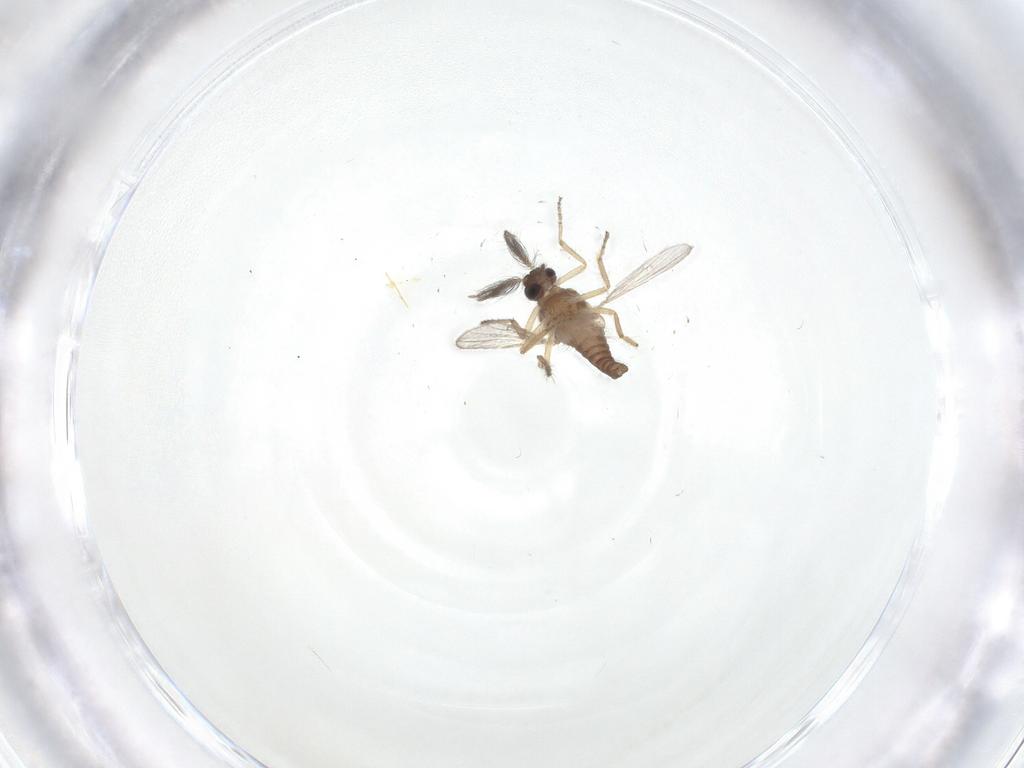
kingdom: Animalia
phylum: Arthropoda
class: Insecta
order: Diptera
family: Ceratopogonidae
